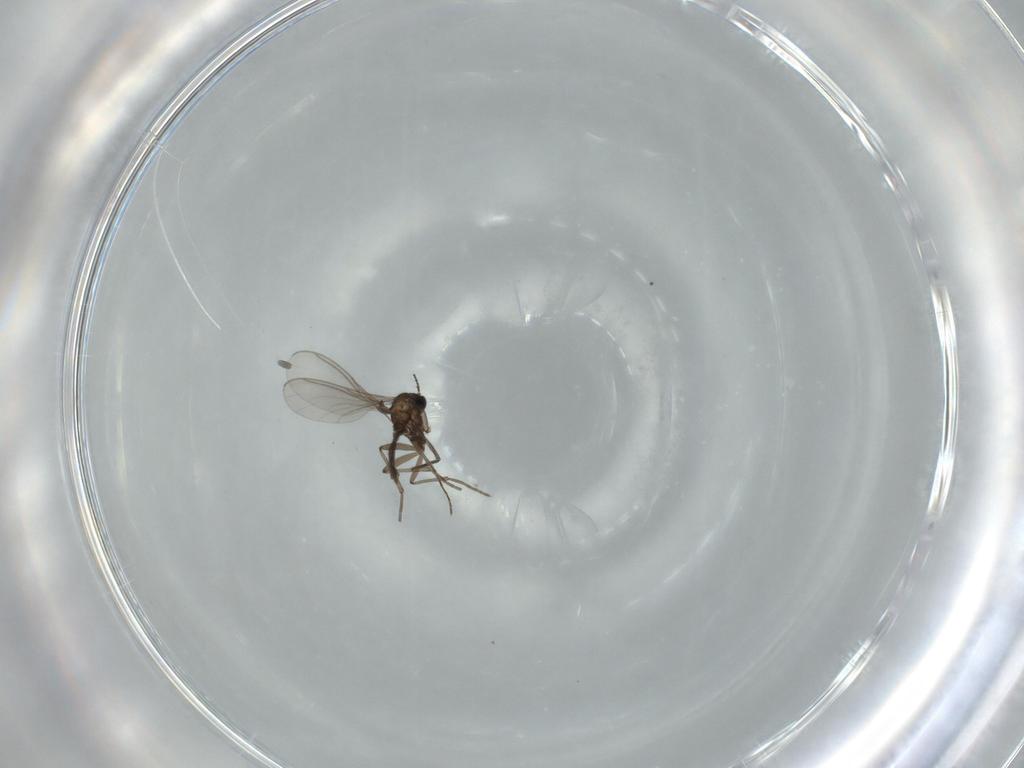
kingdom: Animalia
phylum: Arthropoda
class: Insecta
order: Diptera
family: Sciaridae
